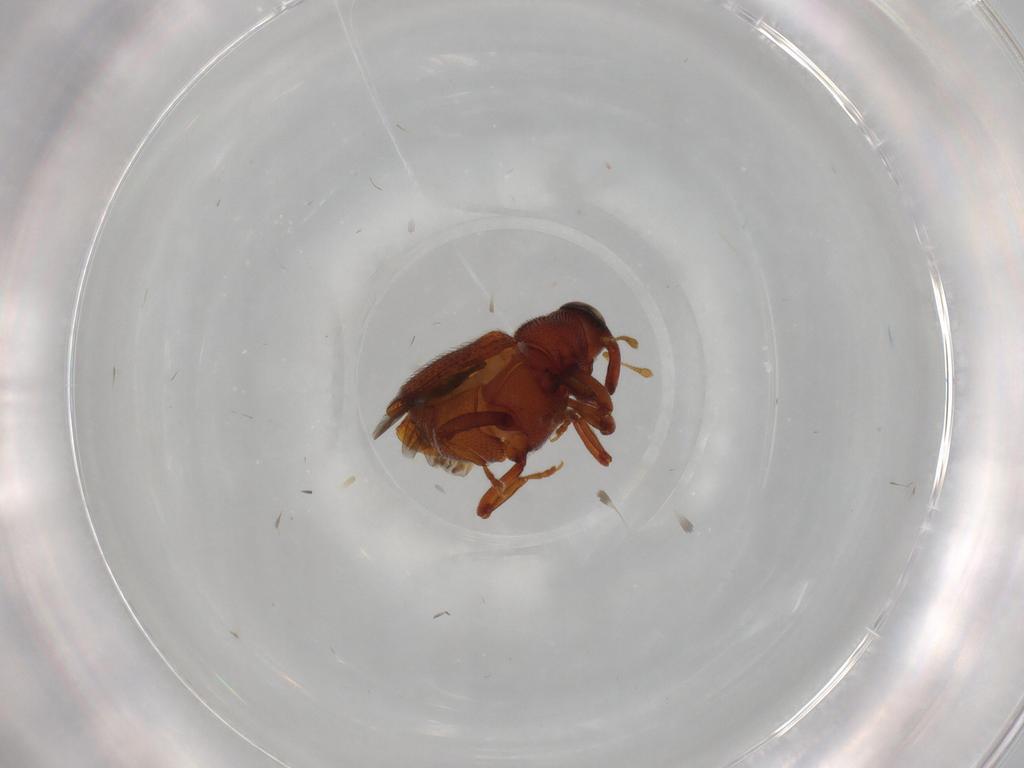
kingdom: Animalia
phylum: Arthropoda
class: Insecta
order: Coleoptera
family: Curculionidae
